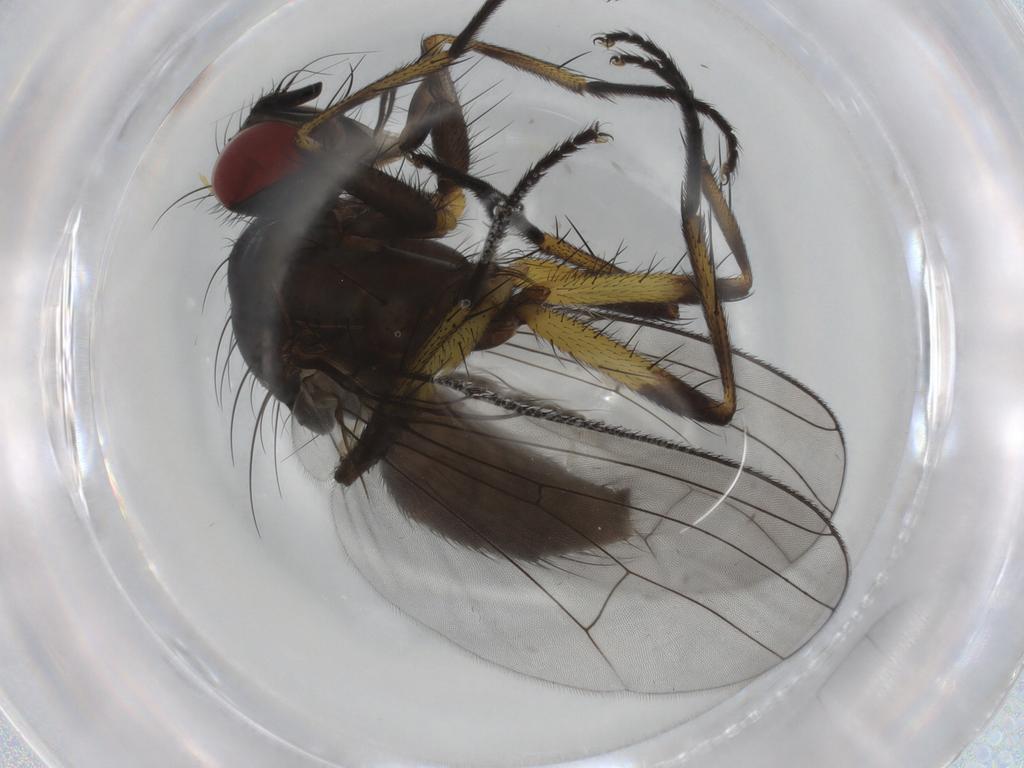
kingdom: Animalia
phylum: Arthropoda
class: Insecta
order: Diptera
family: Muscidae
